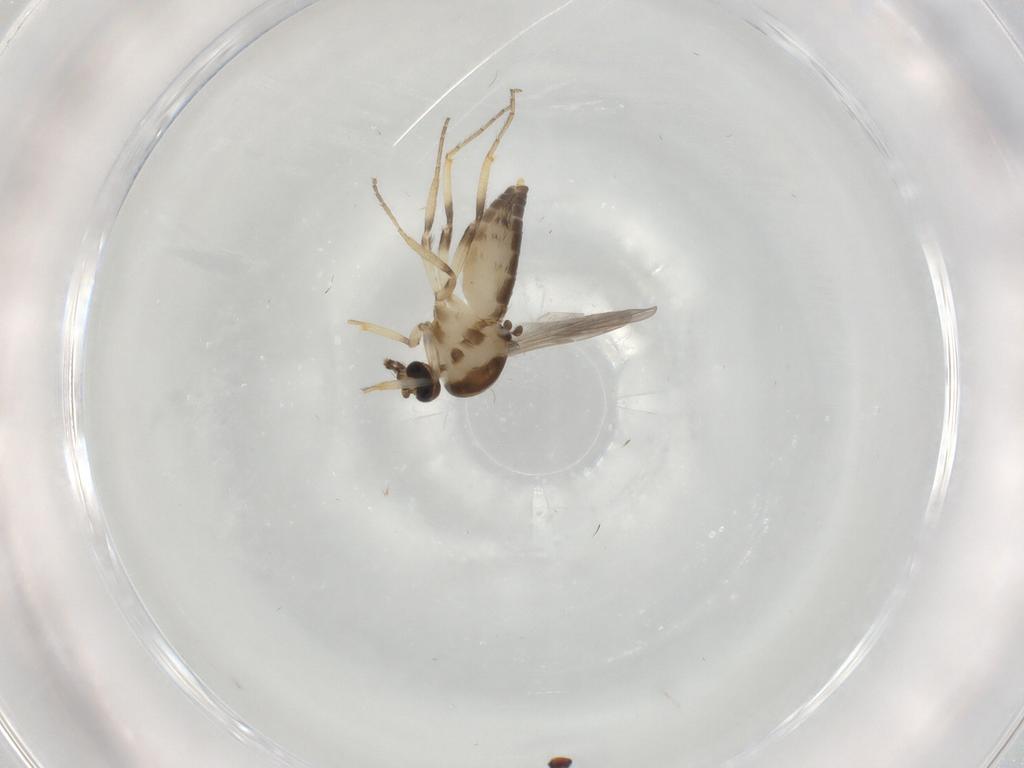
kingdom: Animalia
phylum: Arthropoda
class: Insecta
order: Diptera
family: Ceratopogonidae
